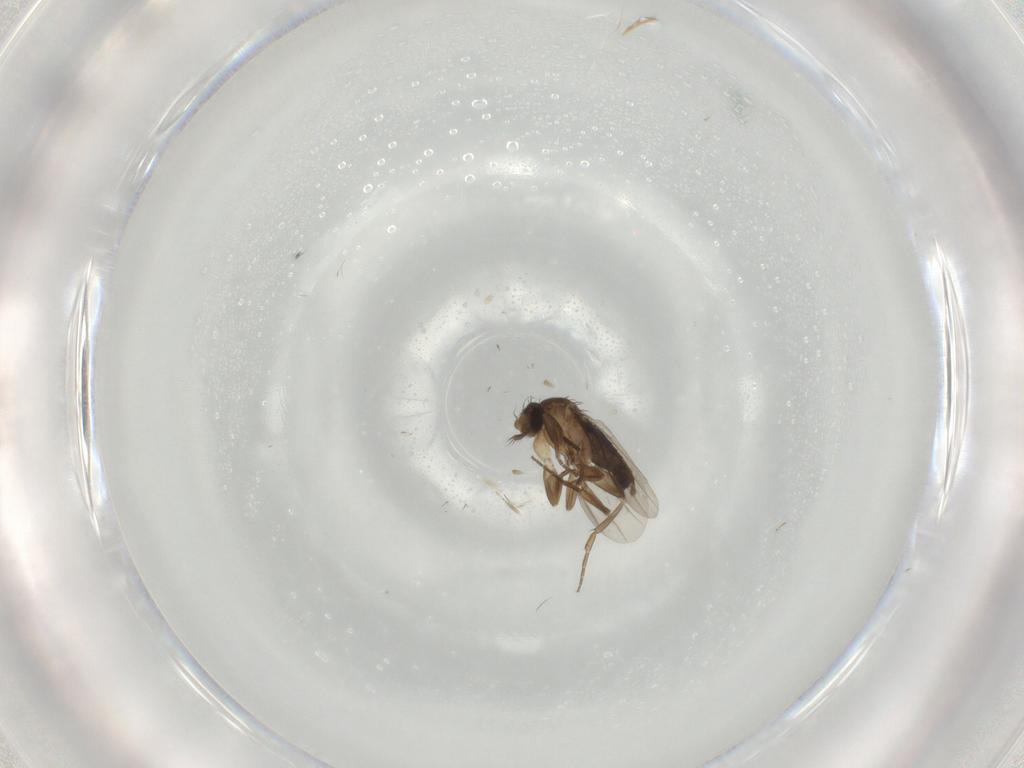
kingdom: Animalia
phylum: Arthropoda
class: Insecta
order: Diptera
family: Phoridae
